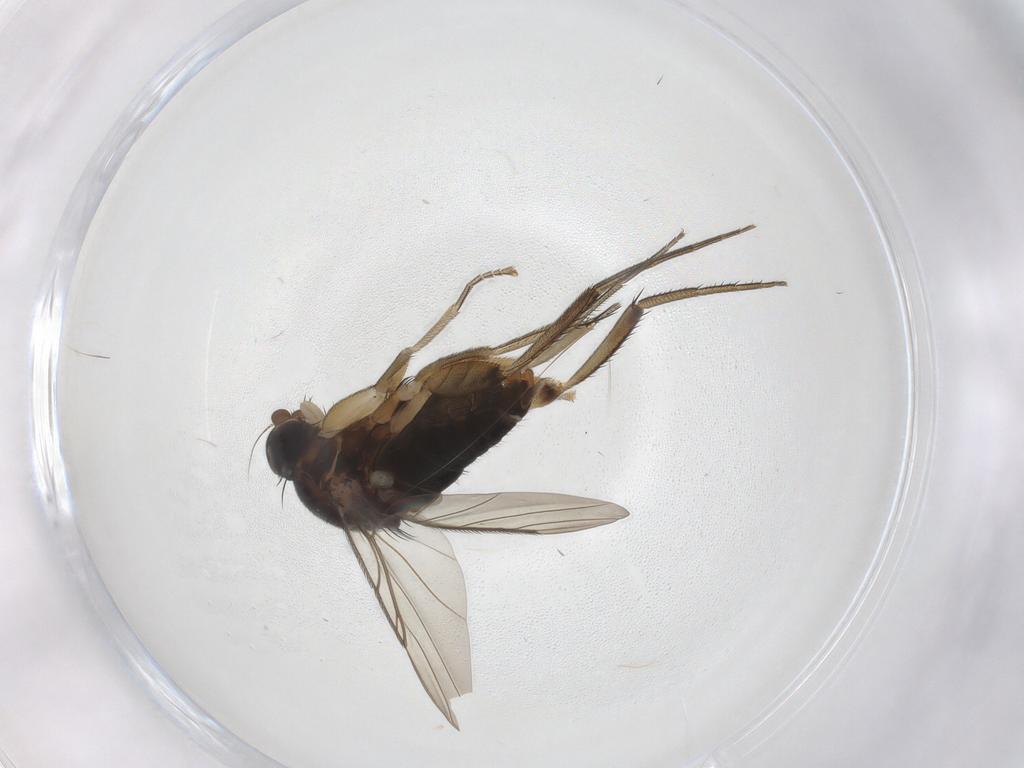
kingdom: Animalia
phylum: Arthropoda
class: Insecta
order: Diptera
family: Phoridae
